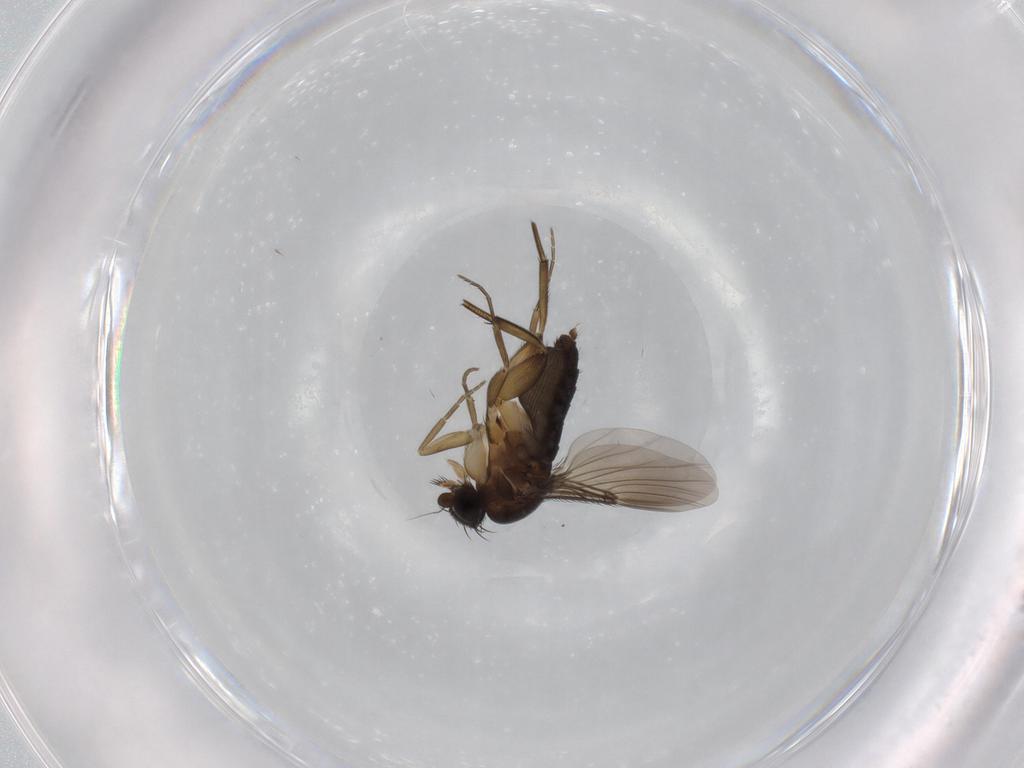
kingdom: Animalia
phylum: Arthropoda
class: Insecta
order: Diptera
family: Phoridae
